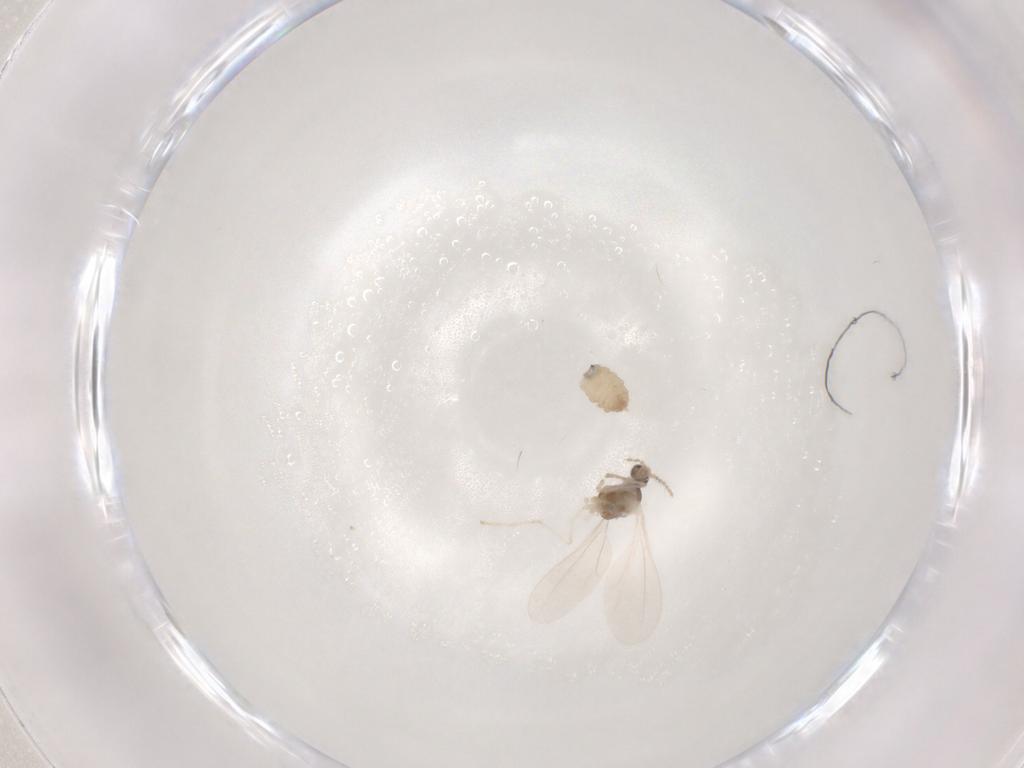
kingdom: Animalia
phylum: Arthropoda
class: Insecta
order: Diptera
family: Cecidomyiidae
